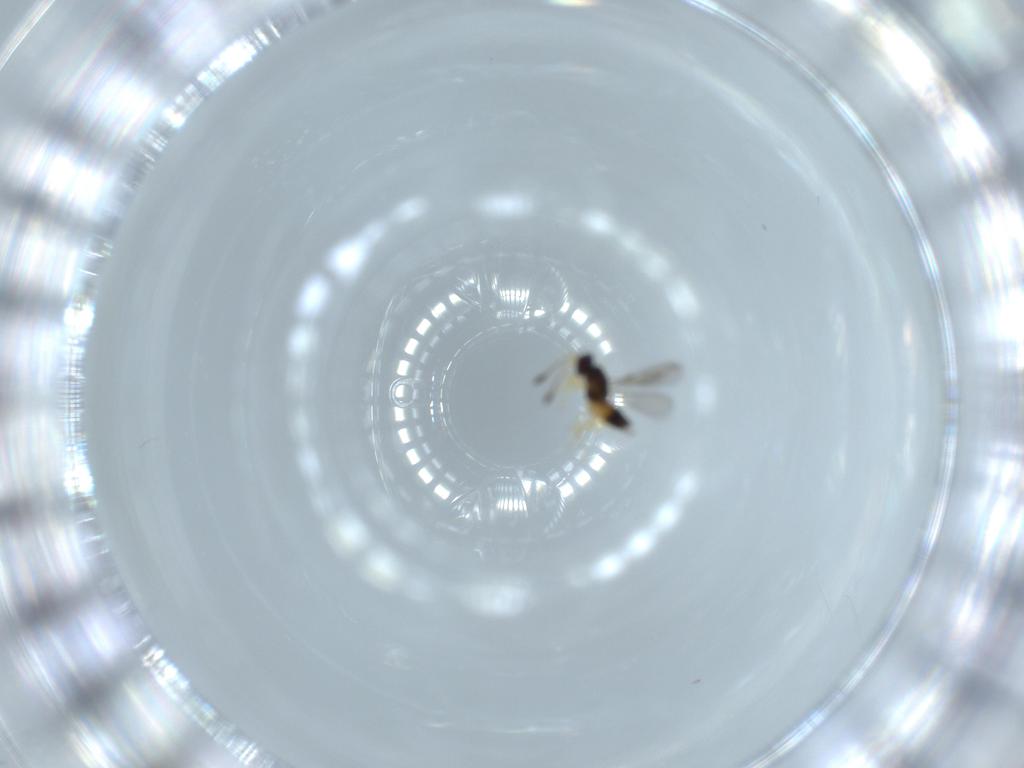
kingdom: Animalia
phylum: Arthropoda
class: Insecta
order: Hymenoptera
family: Mymaridae
